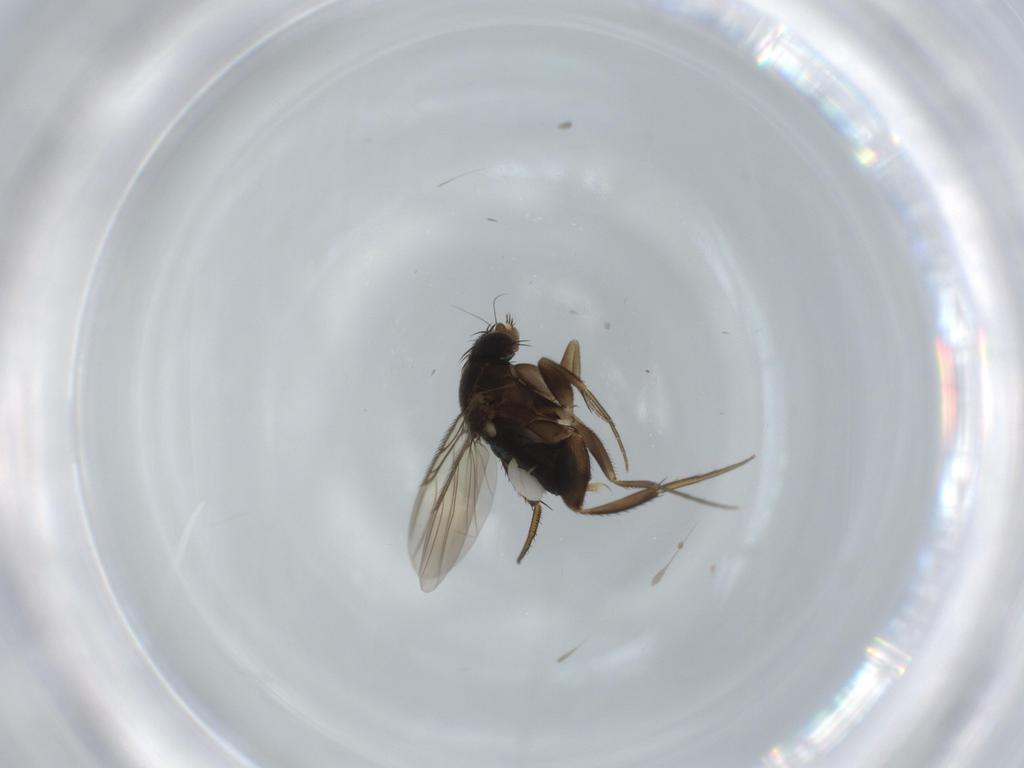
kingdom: Animalia
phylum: Arthropoda
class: Insecta
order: Diptera
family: Phoridae
